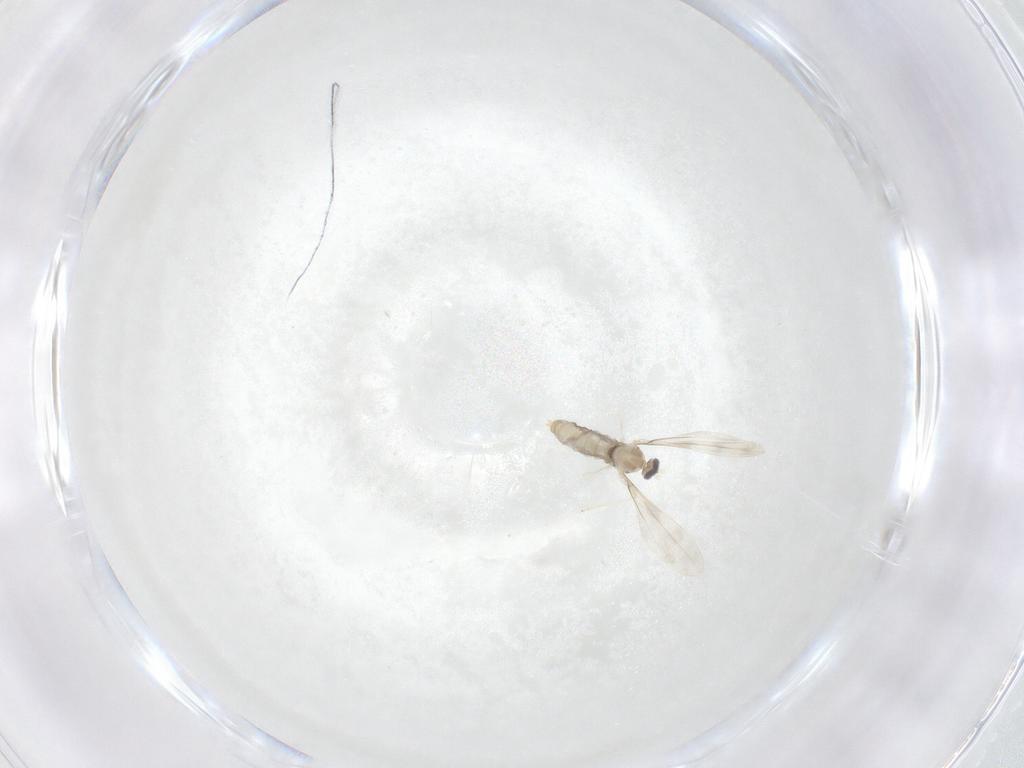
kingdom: Animalia
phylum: Arthropoda
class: Insecta
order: Diptera
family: Cecidomyiidae
